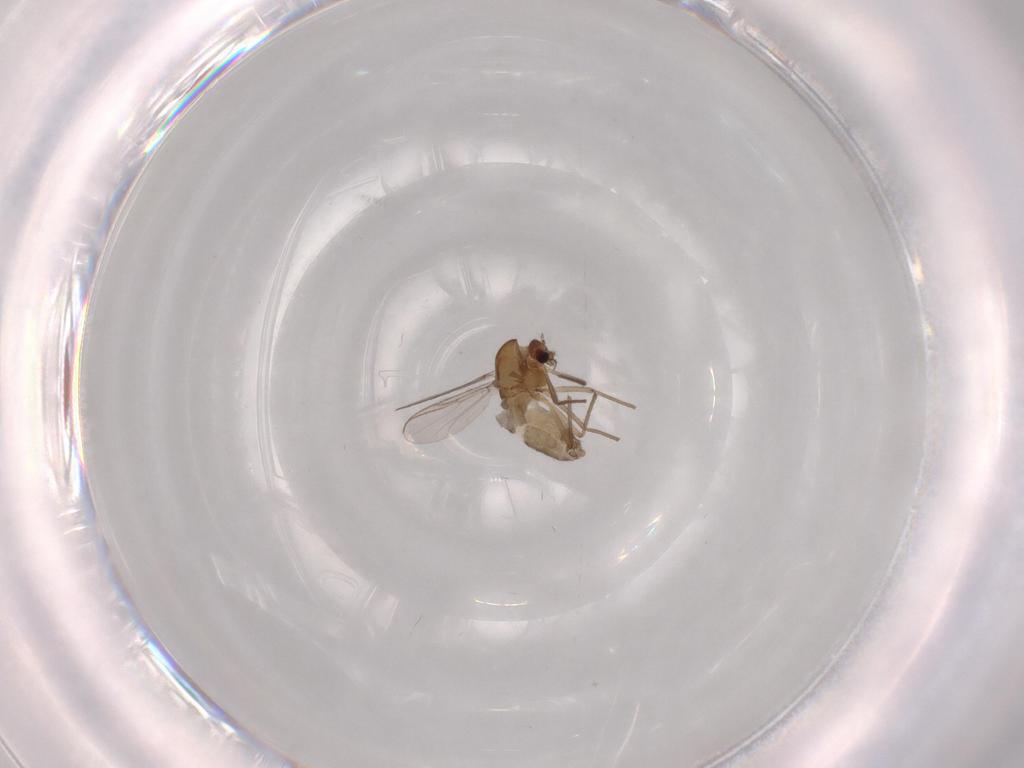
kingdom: Animalia
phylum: Arthropoda
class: Insecta
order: Diptera
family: Chironomidae
